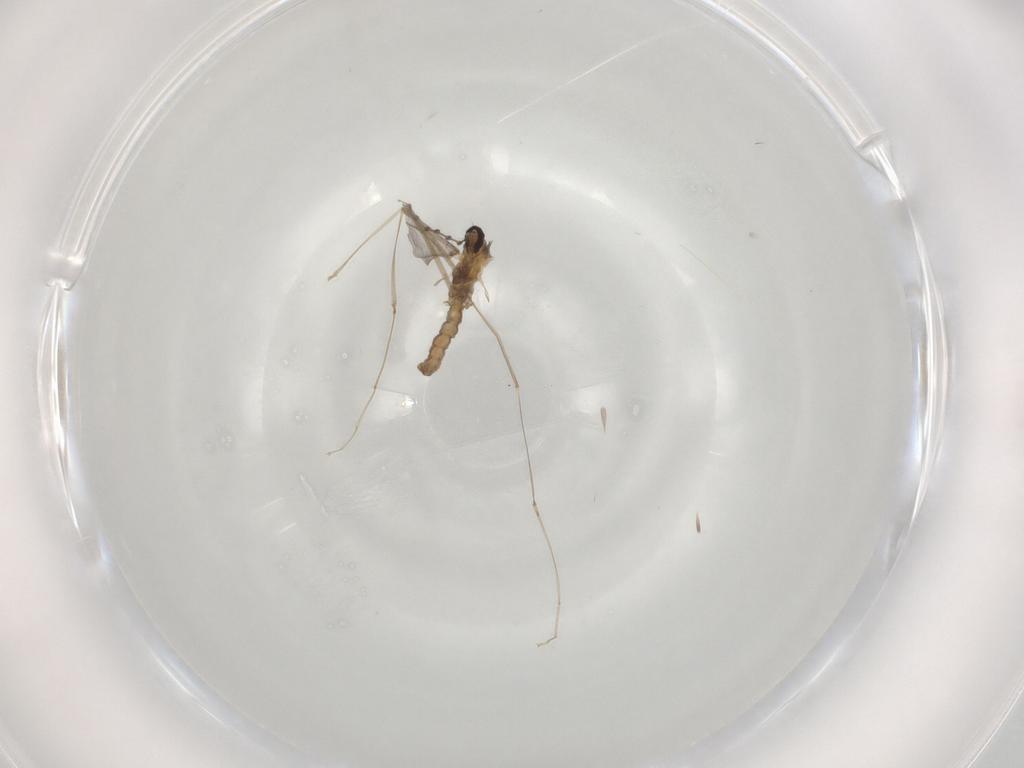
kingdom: Animalia
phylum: Arthropoda
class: Insecta
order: Diptera
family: Cecidomyiidae
